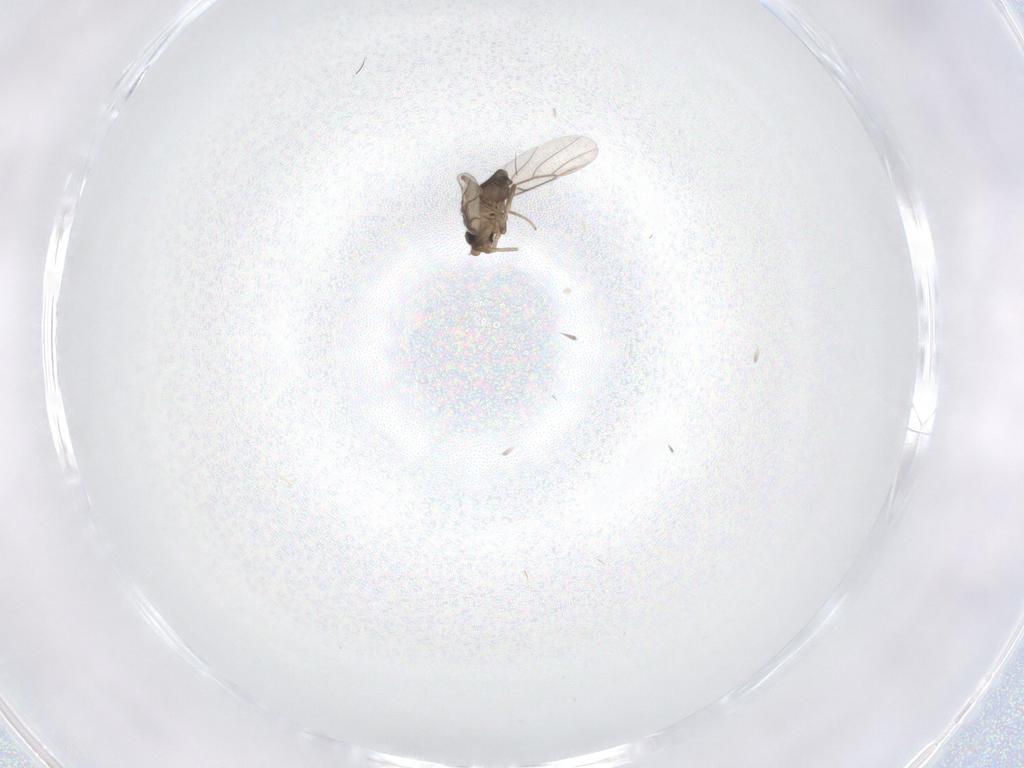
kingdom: Animalia
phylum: Arthropoda
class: Insecta
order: Diptera
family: Phoridae
